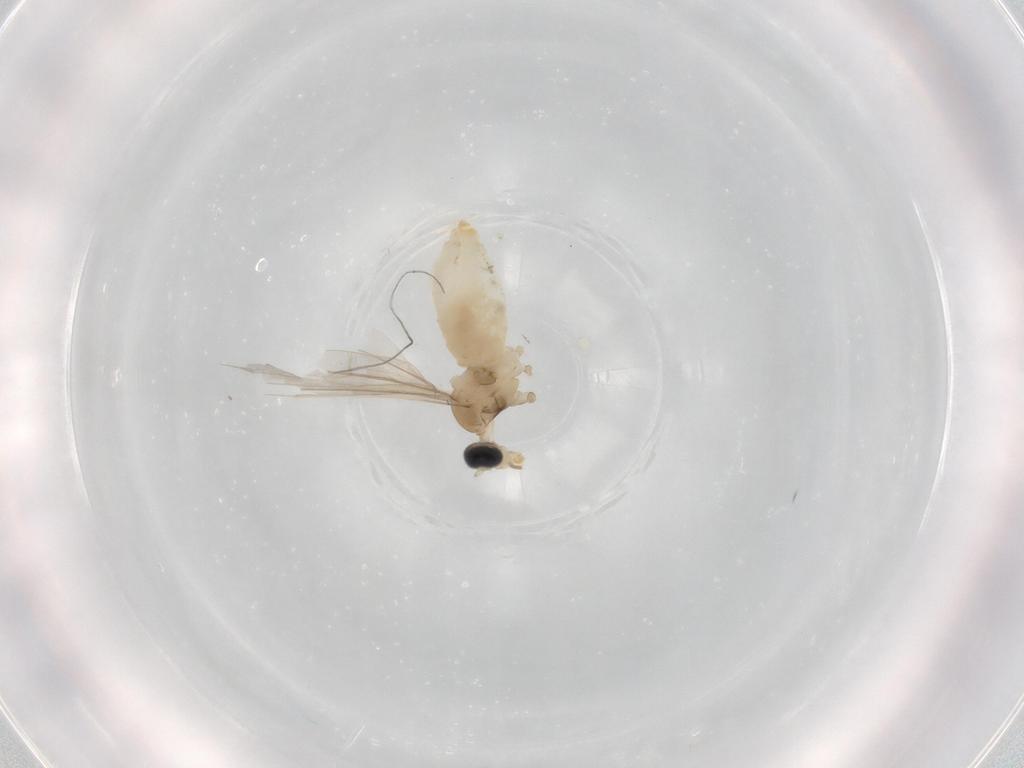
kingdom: Animalia
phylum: Arthropoda
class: Insecta
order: Diptera
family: Cecidomyiidae
